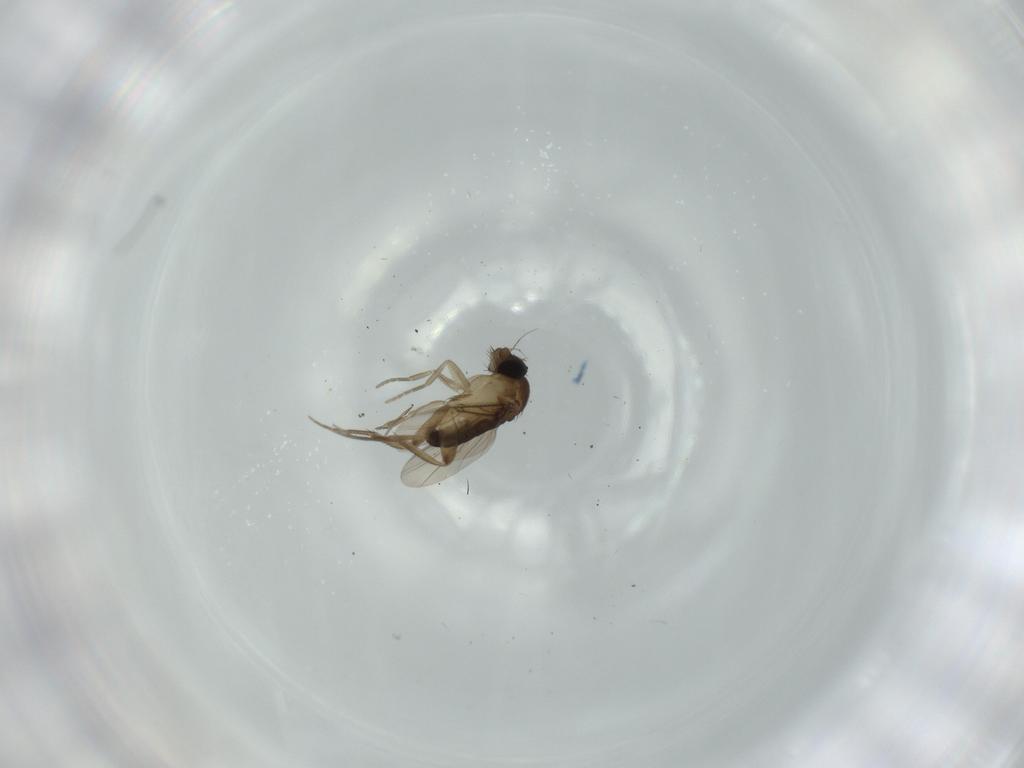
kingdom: Animalia
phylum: Arthropoda
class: Insecta
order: Diptera
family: Phoridae
